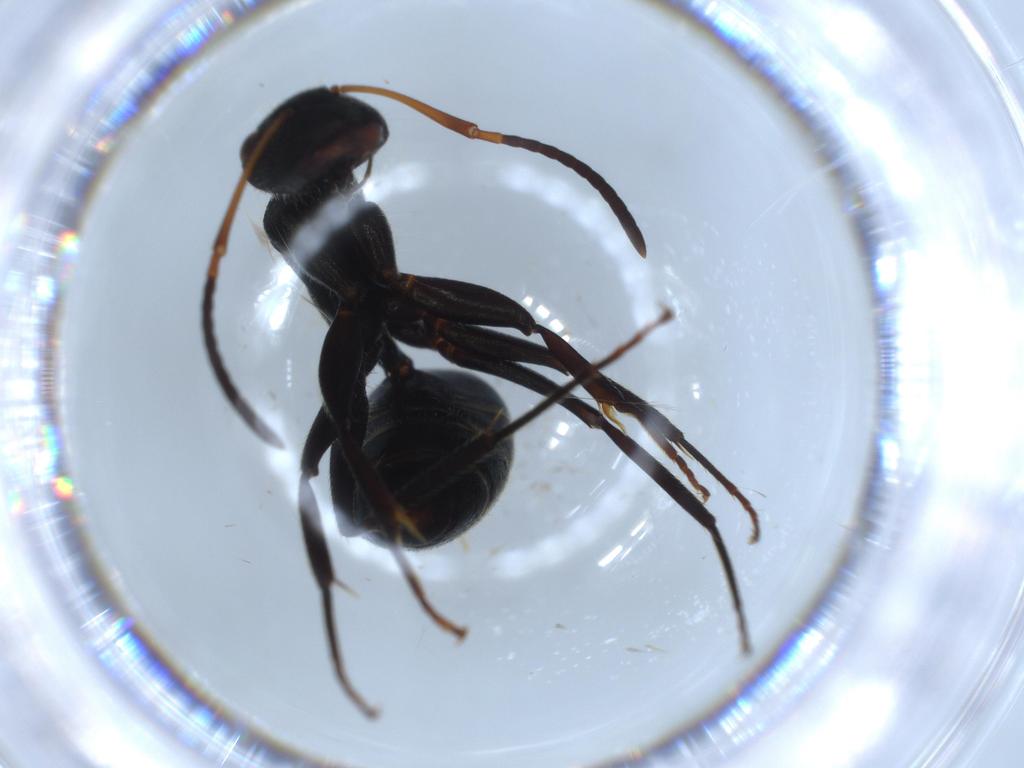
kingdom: Animalia
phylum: Arthropoda
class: Insecta
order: Hymenoptera
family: Formicidae
